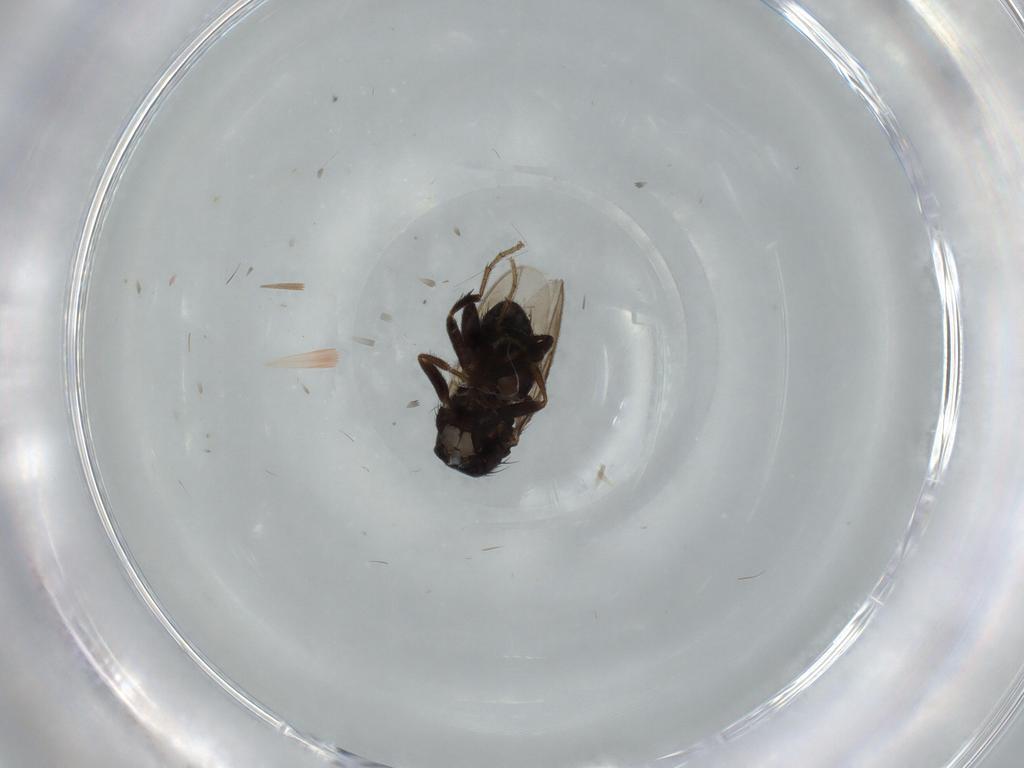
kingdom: Animalia
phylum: Arthropoda
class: Insecta
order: Diptera
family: Sphaeroceridae
